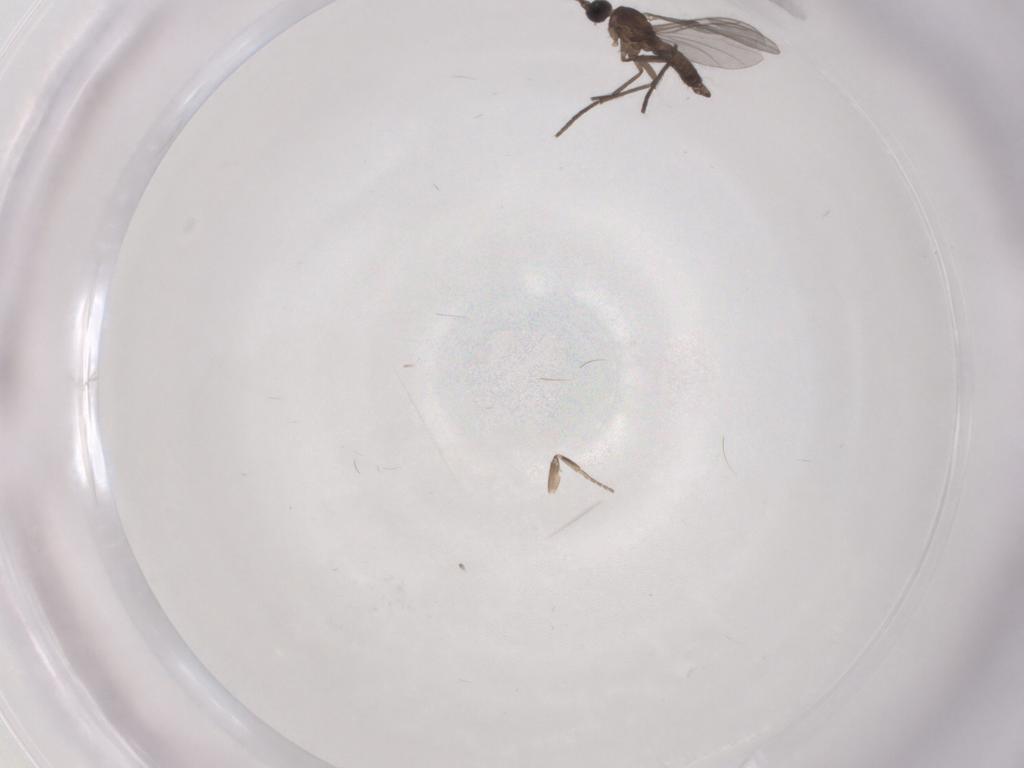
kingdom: Animalia
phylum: Arthropoda
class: Insecta
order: Diptera
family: Sciaridae
